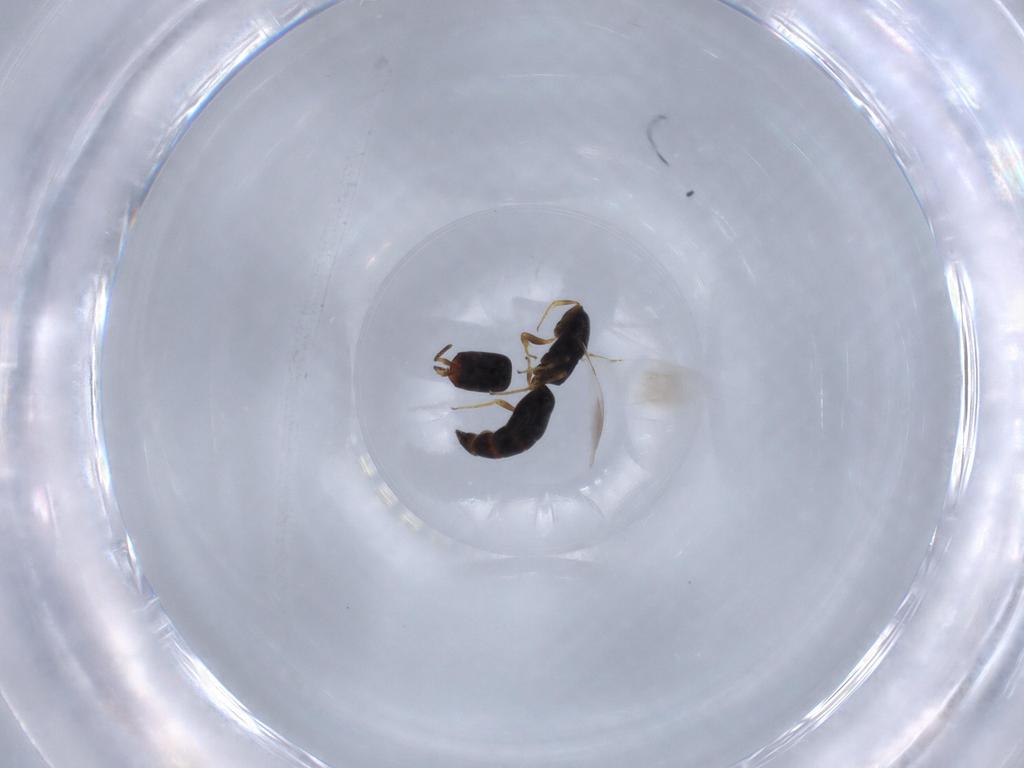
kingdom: Animalia
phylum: Arthropoda
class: Insecta
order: Hymenoptera
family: Bethylidae
